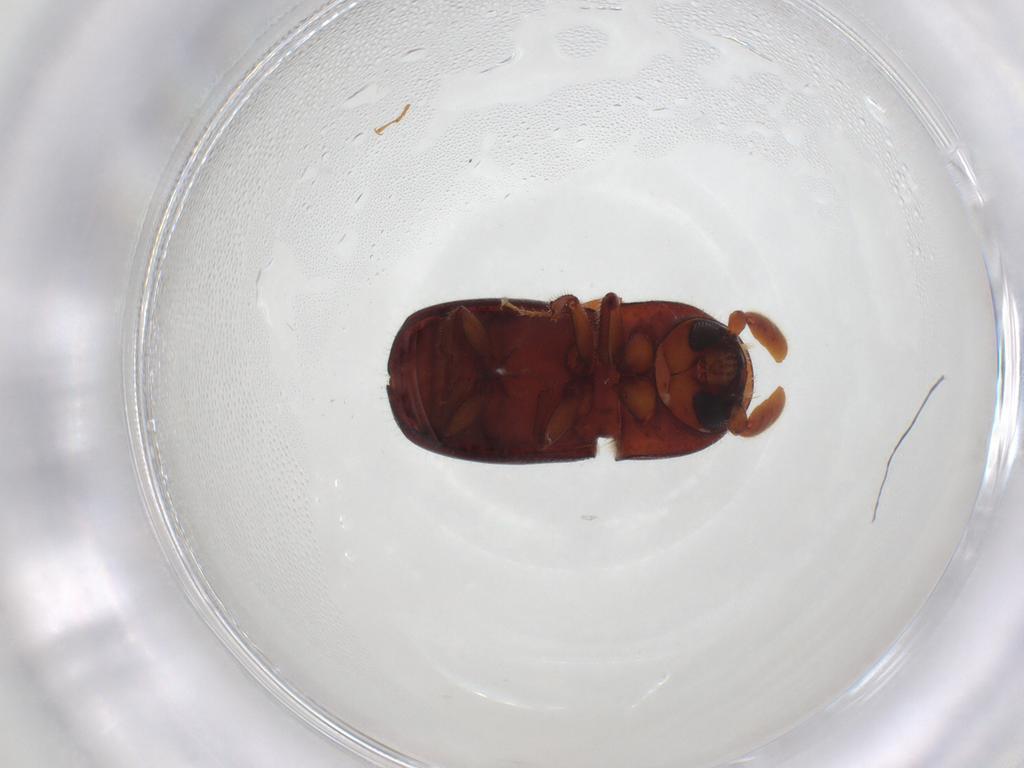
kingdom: Animalia
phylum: Arthropoda
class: Insecta
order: Coleoptera
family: Curculionidae
